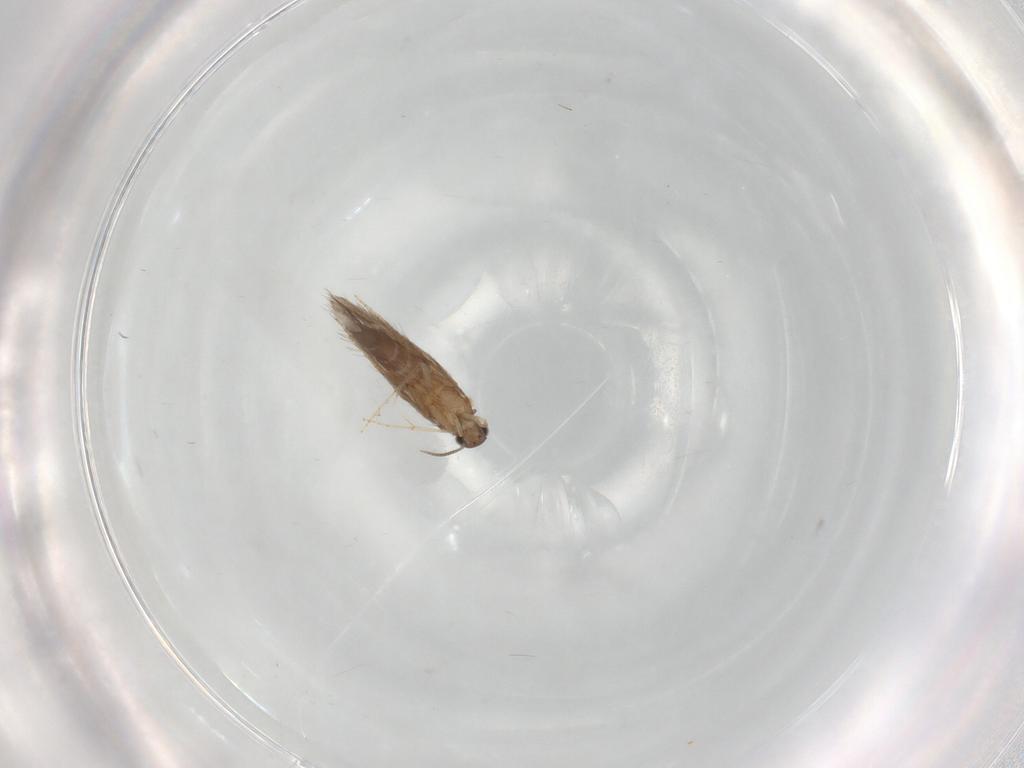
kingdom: Animalia
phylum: Arthropoda
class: Insecta
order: Trichoptera
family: Hydroptilidae
